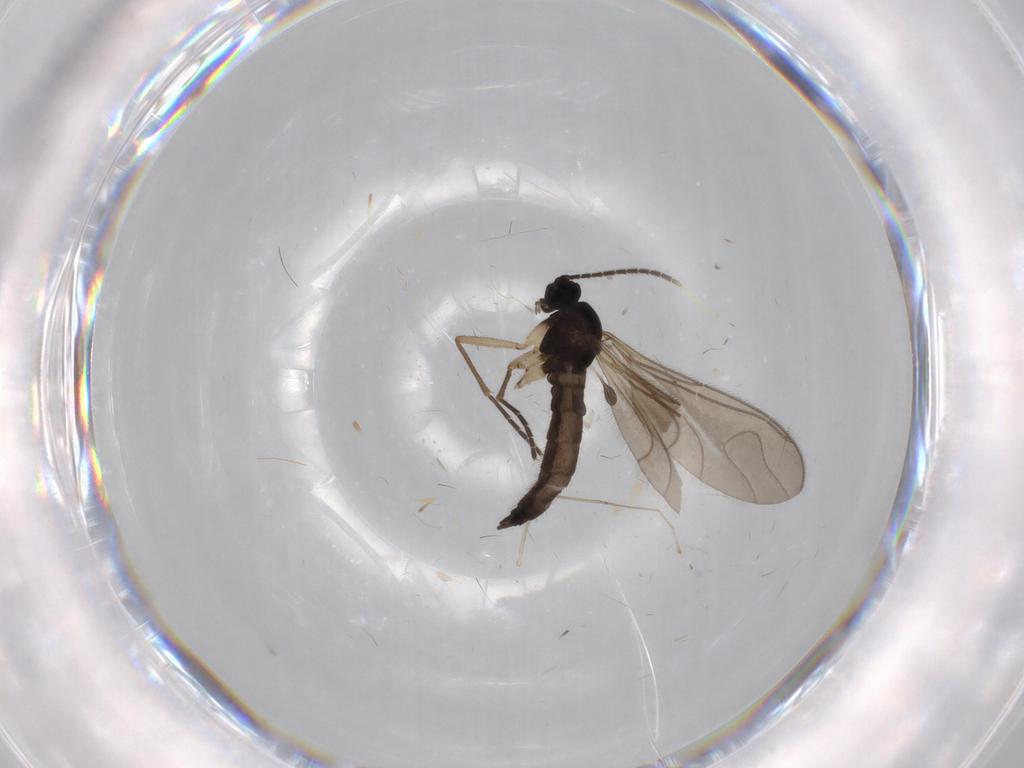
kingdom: Animalia
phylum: Arthropoda
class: Insecta
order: Diptera
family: Sciaridae
